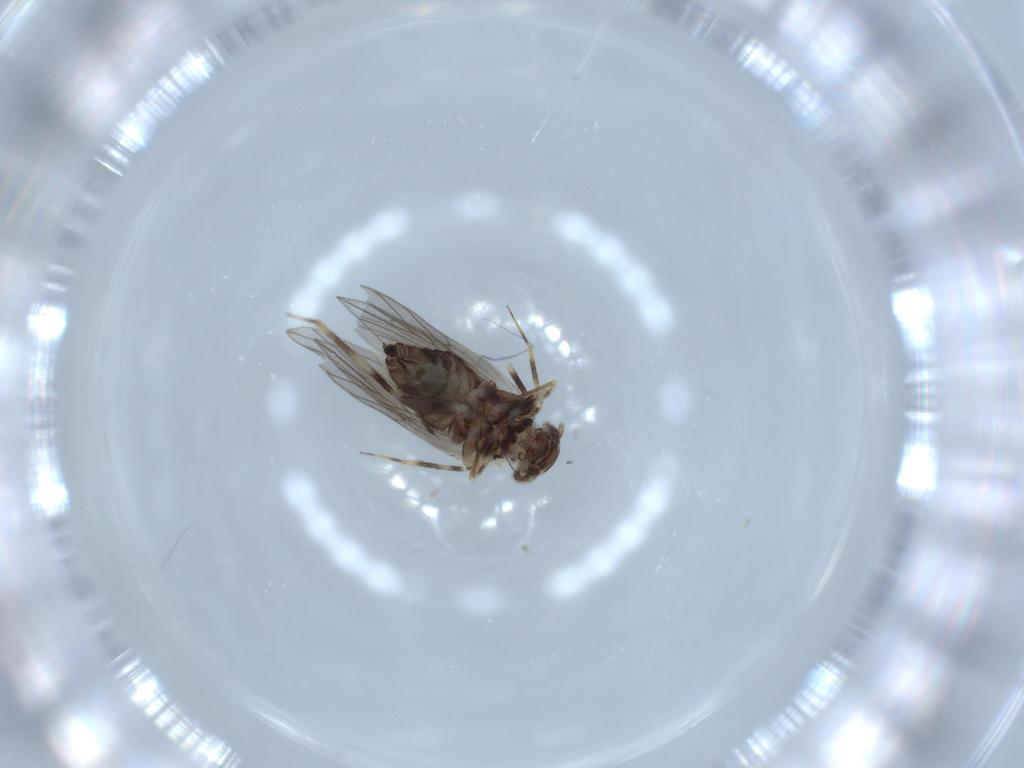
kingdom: Animalia
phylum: Arthropoda
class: Insecta
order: Psocodea
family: Lepidopsocidae
